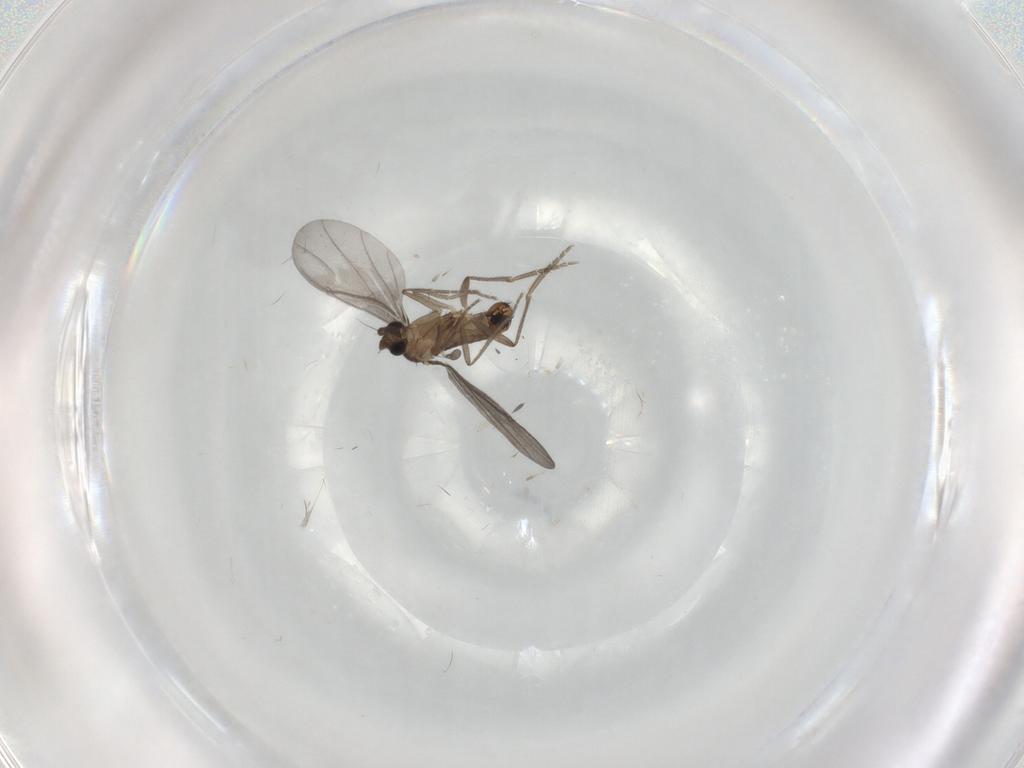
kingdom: Animalia
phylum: Arthropoda
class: Insecta
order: Diptera
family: Phoridae
